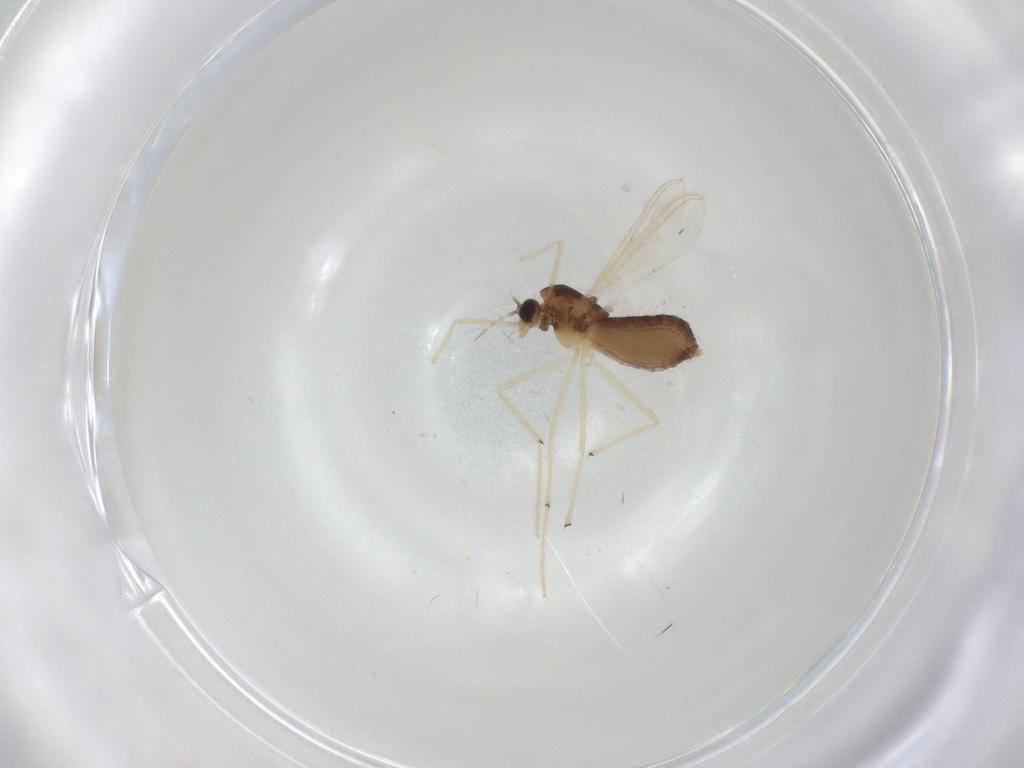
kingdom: Animalia
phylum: Arthropoda
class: Insecta
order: Diptera
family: Chironomidae
